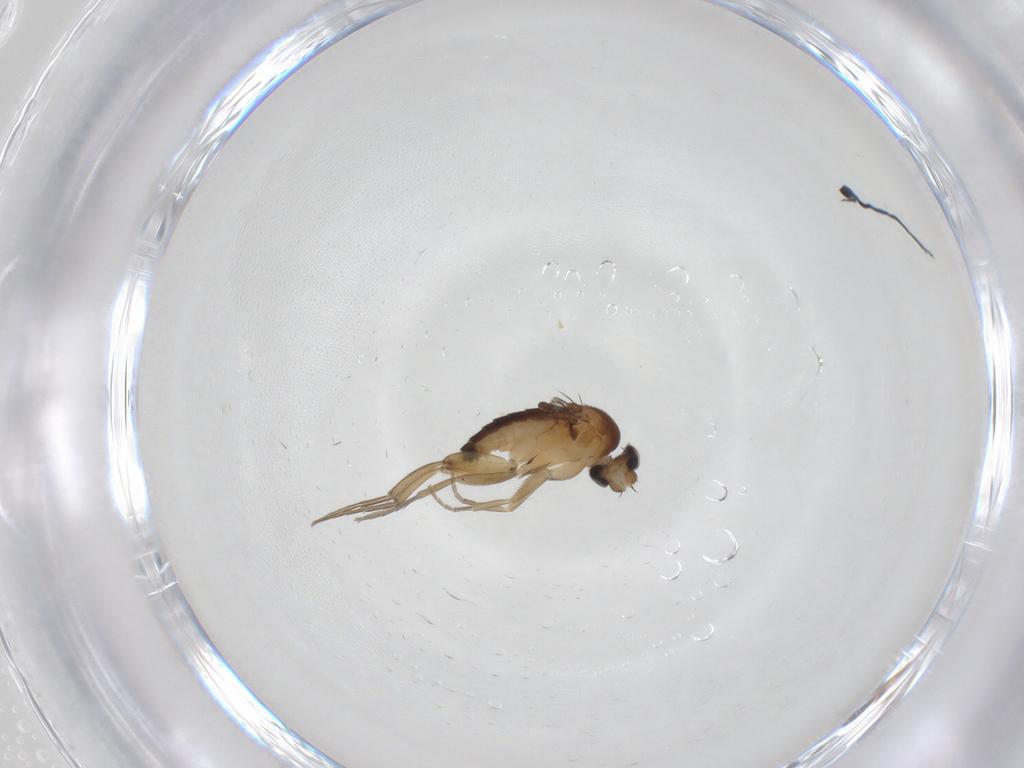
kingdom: Animalia
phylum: Arthropoda
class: Insecta
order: Diptera
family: Phoridae
